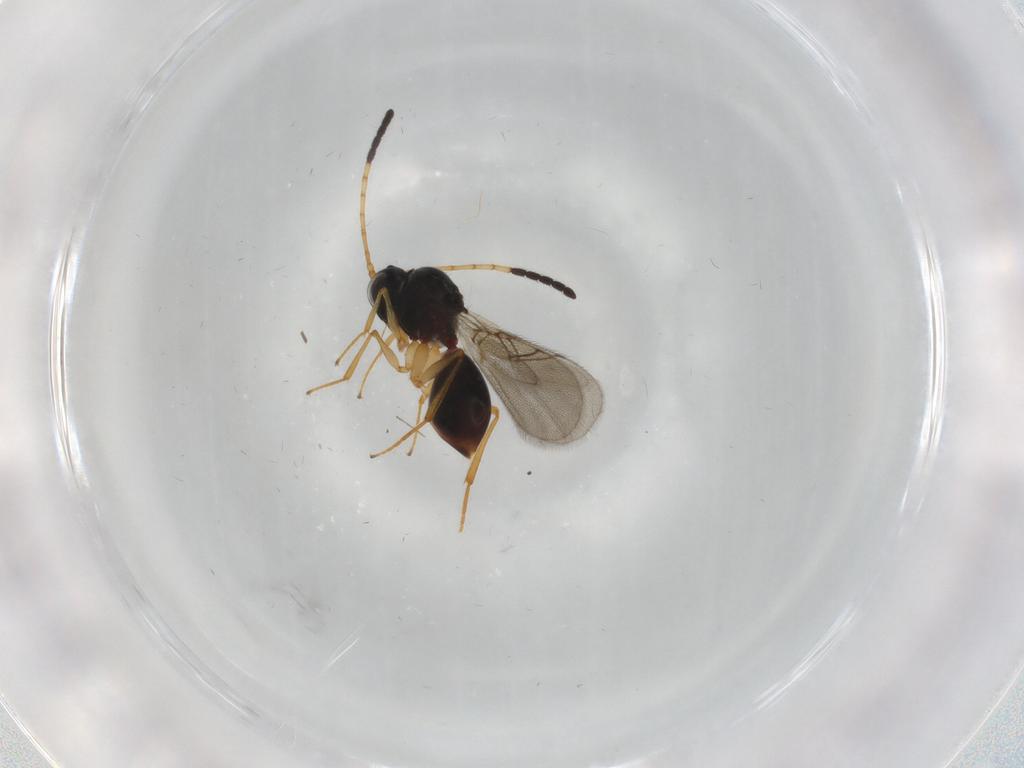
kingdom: Animalia
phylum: Arthropoda
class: Insecta
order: Hymenoptera
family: Figitidae
